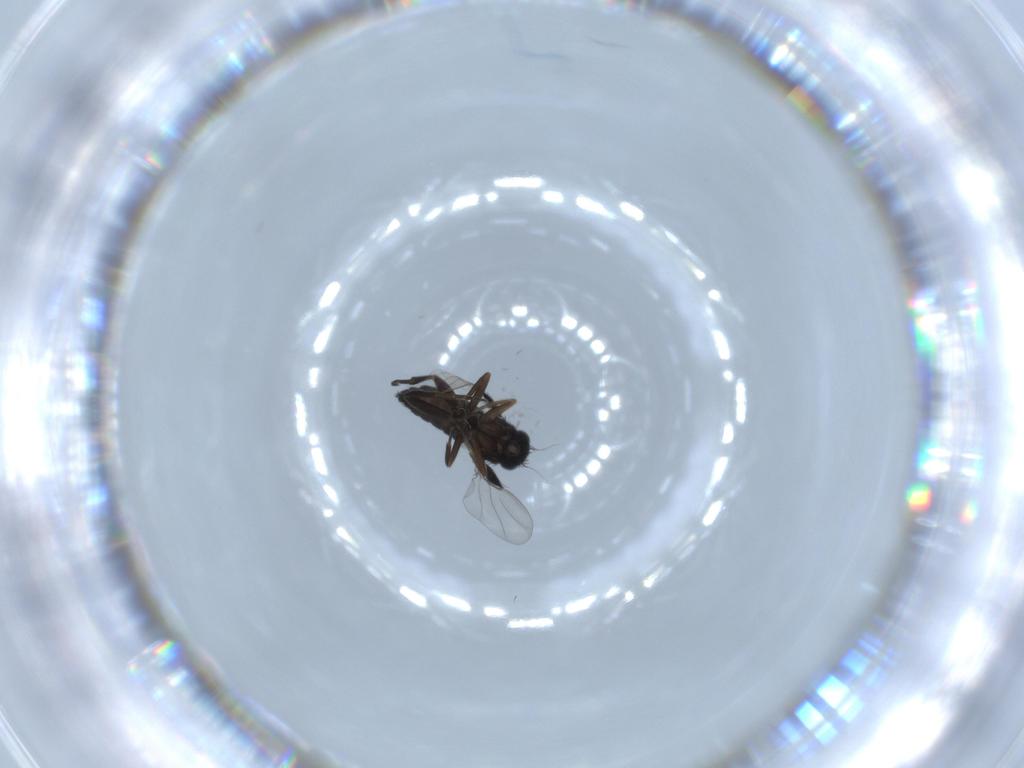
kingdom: Animalia
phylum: Arthropoda
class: Insecta
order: Diptera
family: Phoridae
